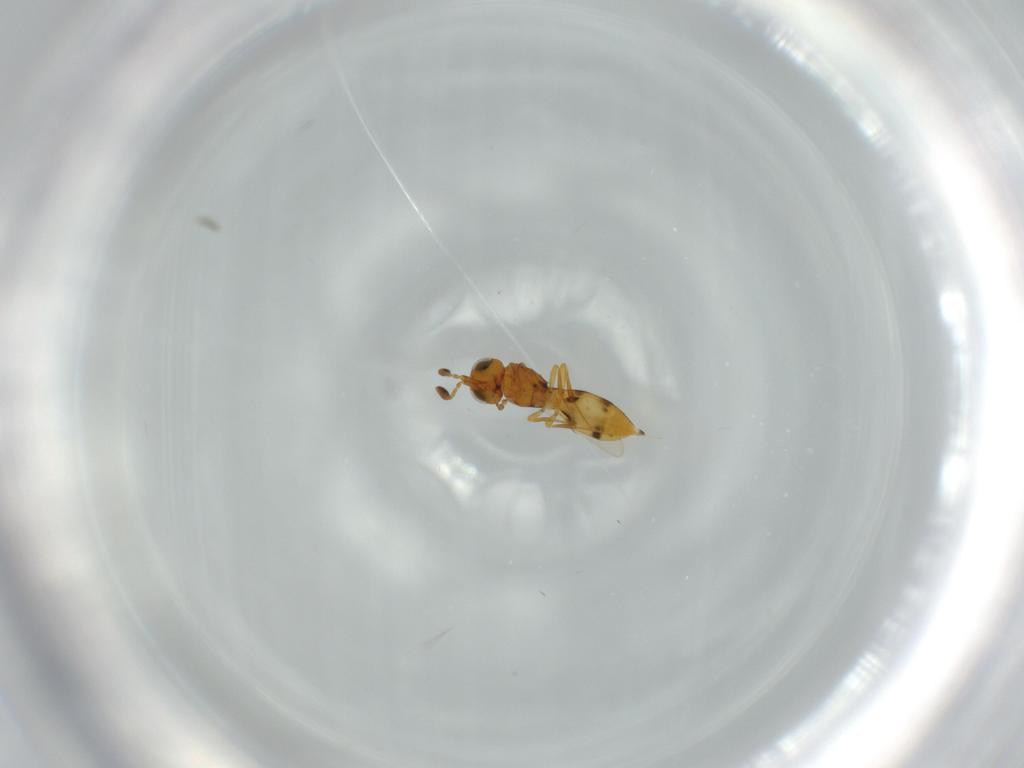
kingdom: Animalia
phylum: Arthropoda
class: Insecta
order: Hymenoptera
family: Scelionidae
